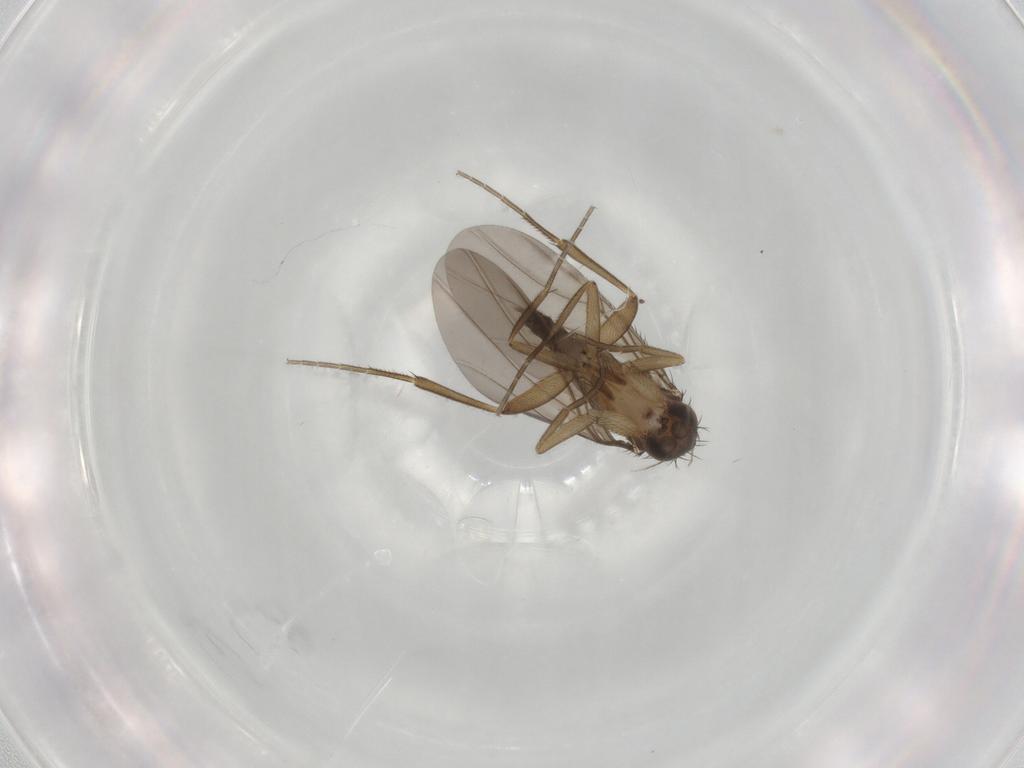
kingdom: Animalia
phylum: Arthropoda
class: Insecta
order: Diptera
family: Phoridae
